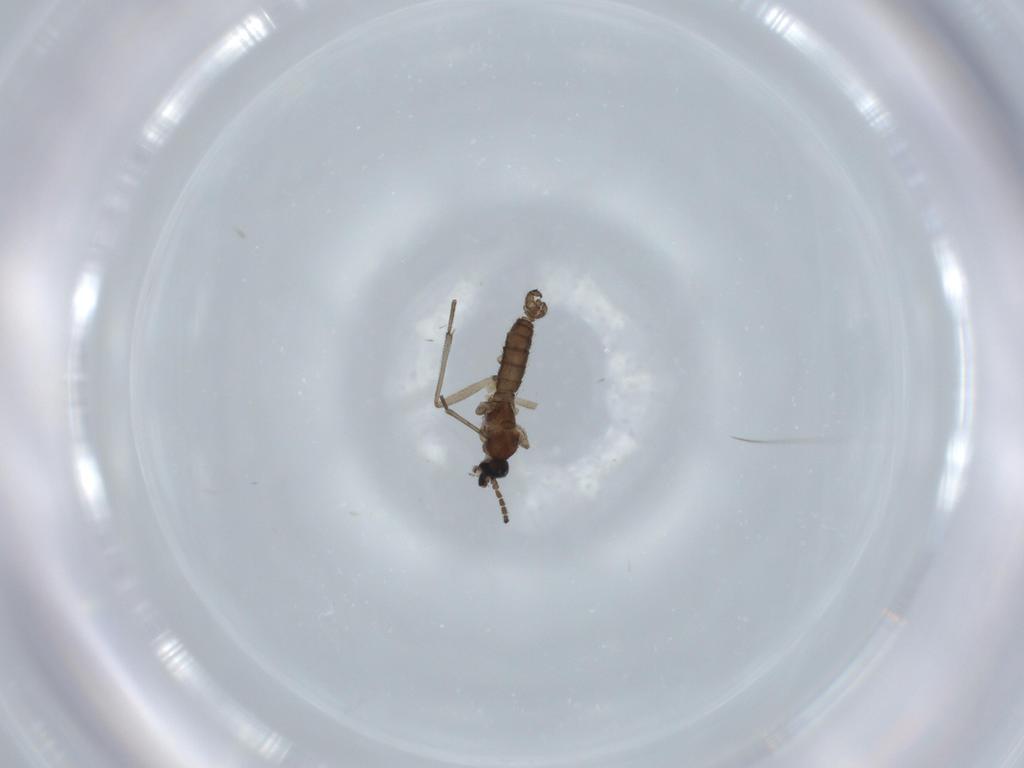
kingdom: Animalia
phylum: Arthropoda
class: Insecta
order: Diptera
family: Sciaridae
